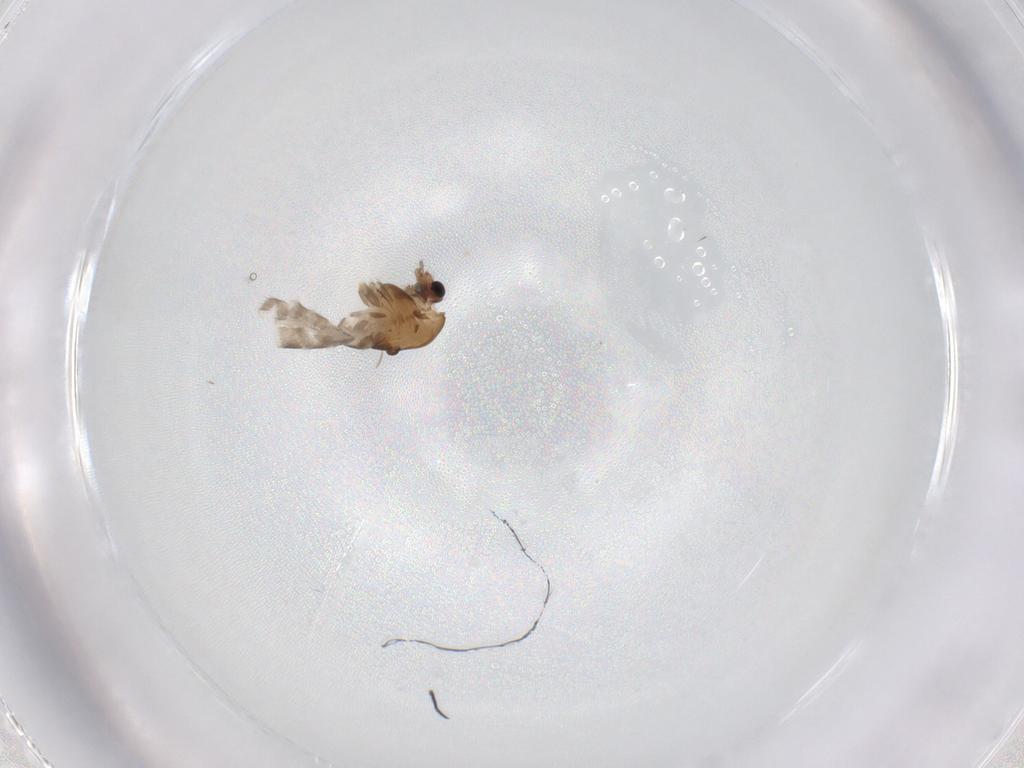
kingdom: Animalia
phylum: Arthropoda
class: Insecta
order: Diptera
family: Chironomidae
